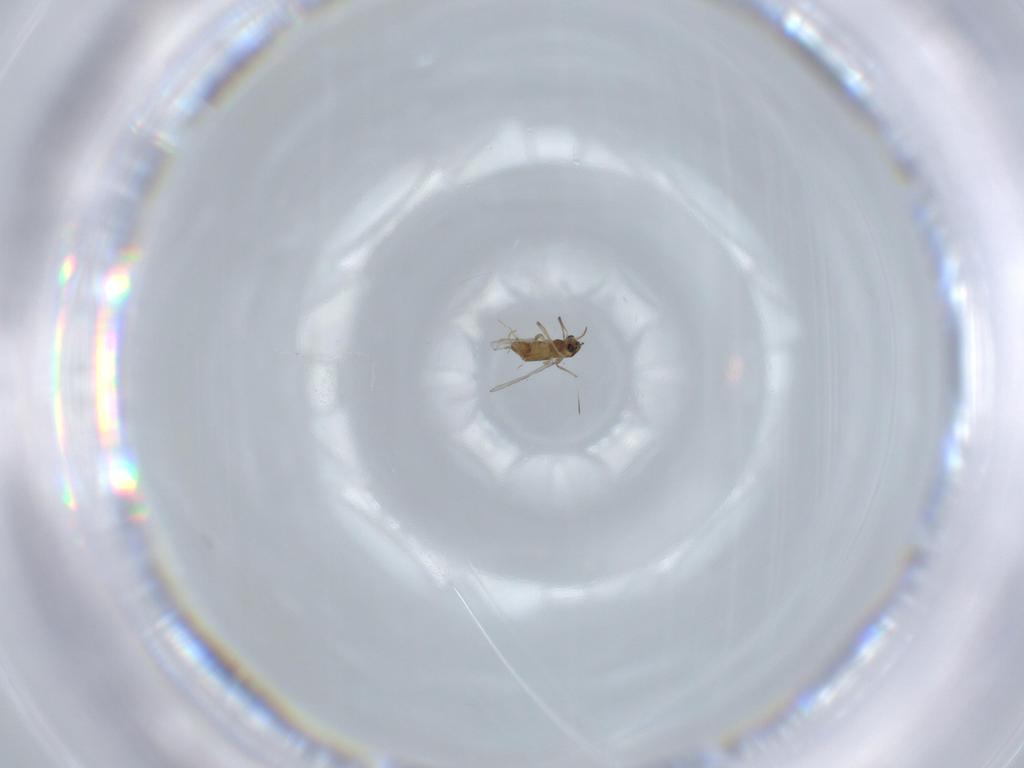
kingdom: Animalia
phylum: Arthropoda
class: Insecta
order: Diptera
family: Chironomidae
